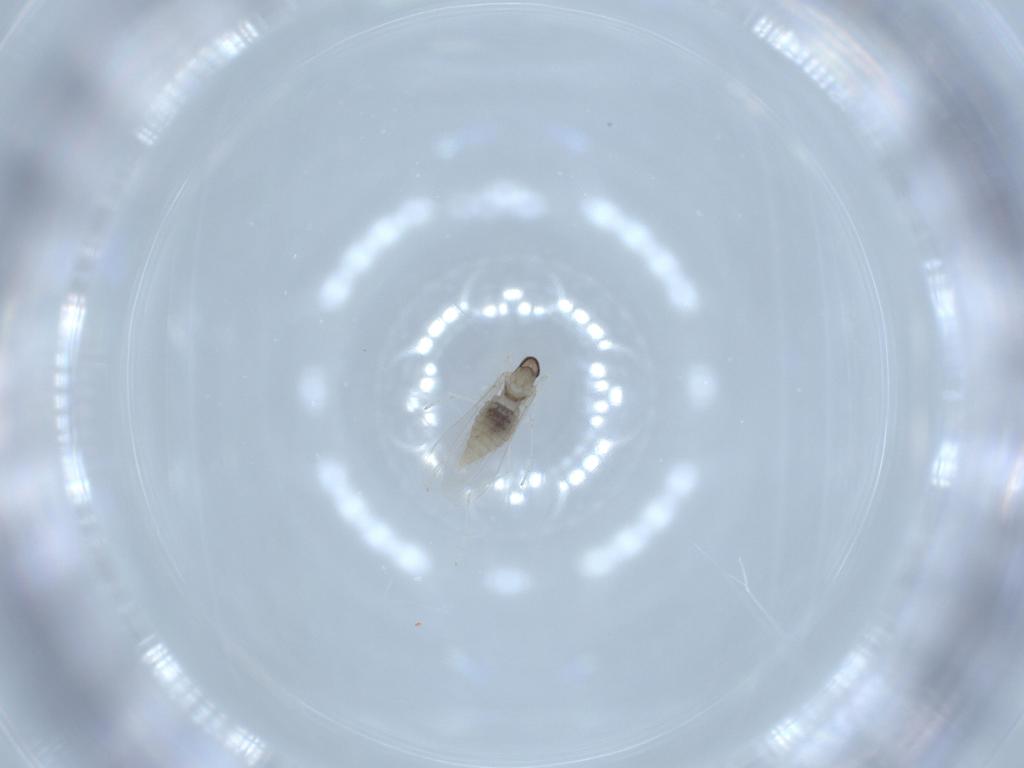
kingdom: Animalia
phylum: Arthropoda
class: Insecta
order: Diptera
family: Cecidomyiidae
